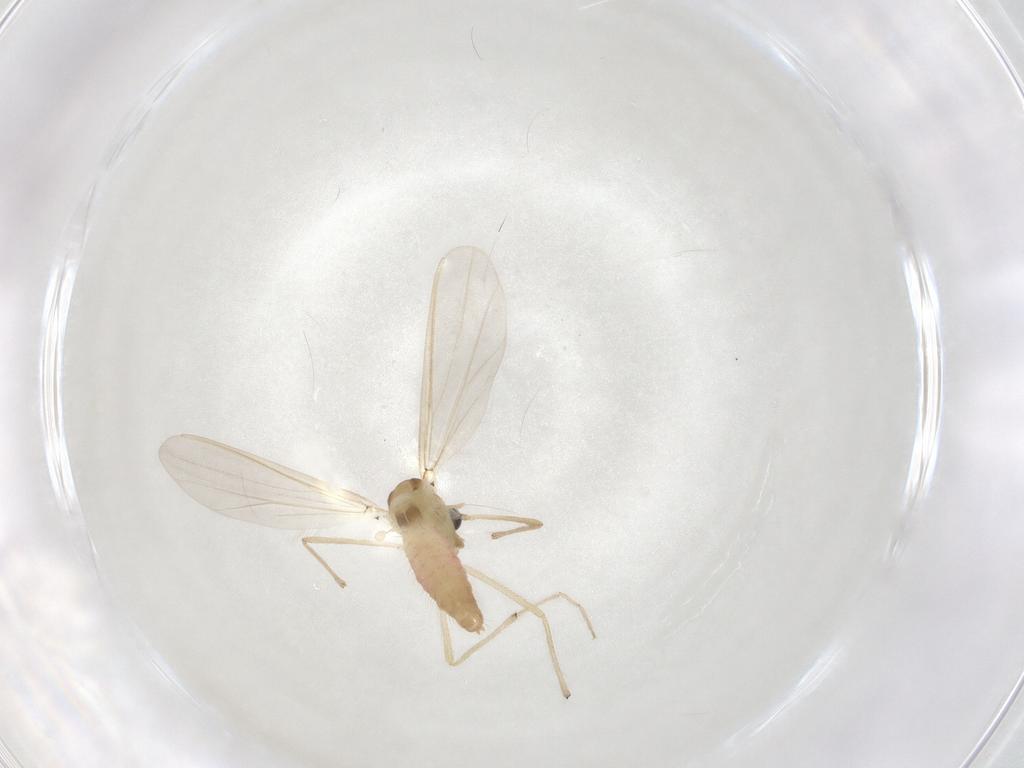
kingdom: Animalia
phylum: Arthropoda
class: Insecta
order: Diptera
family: Chironomidae
